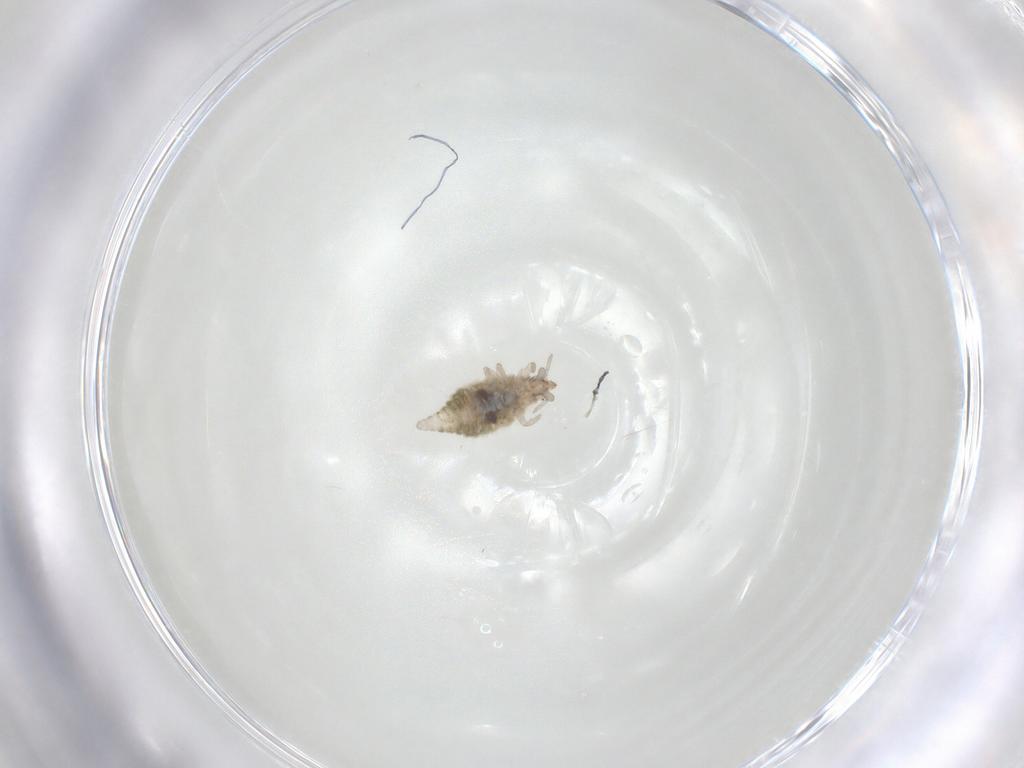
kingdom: Animalia
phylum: Arthropoda
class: Insecta
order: Neuroptera
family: Coniopterygidae
